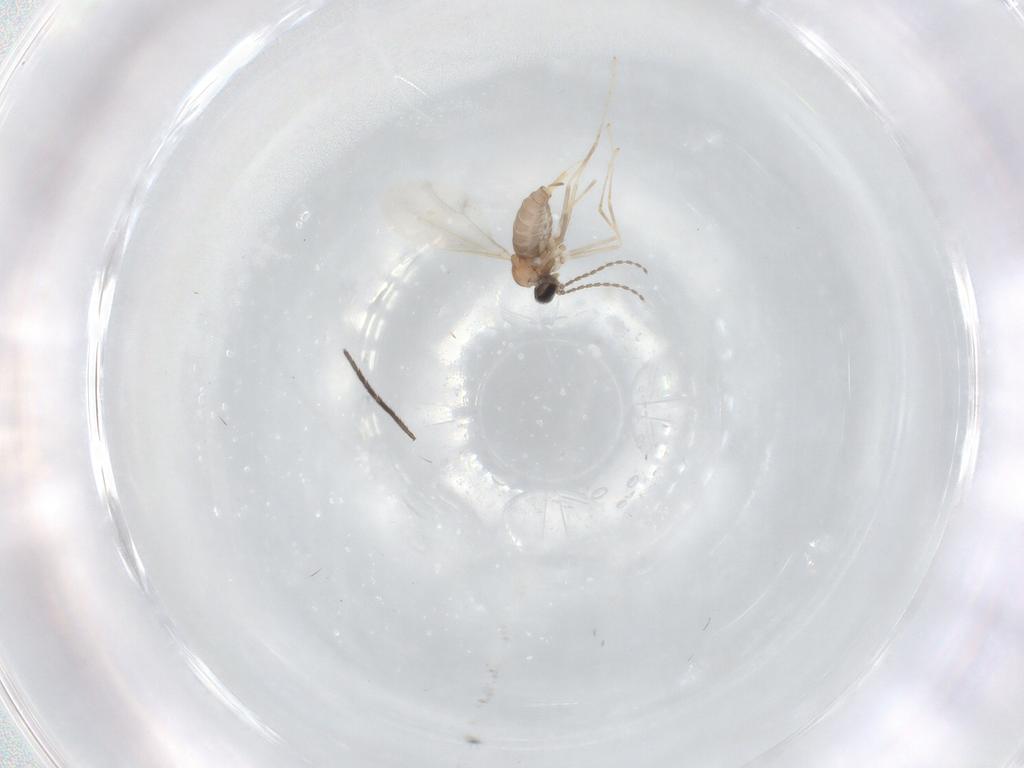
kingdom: Animalia
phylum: Arthropoda
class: Insecta
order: Diptera
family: Sciaridae
